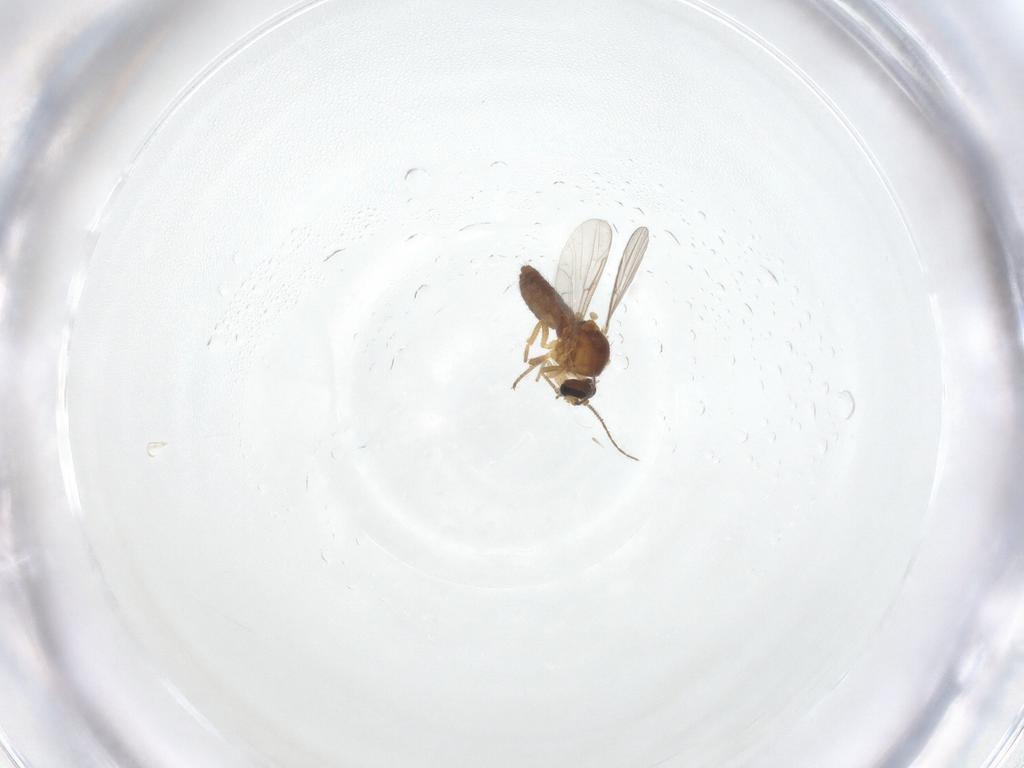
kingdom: Animalia
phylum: Arthropoda
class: Insecta
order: Diptera
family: Ceratopogonidae
